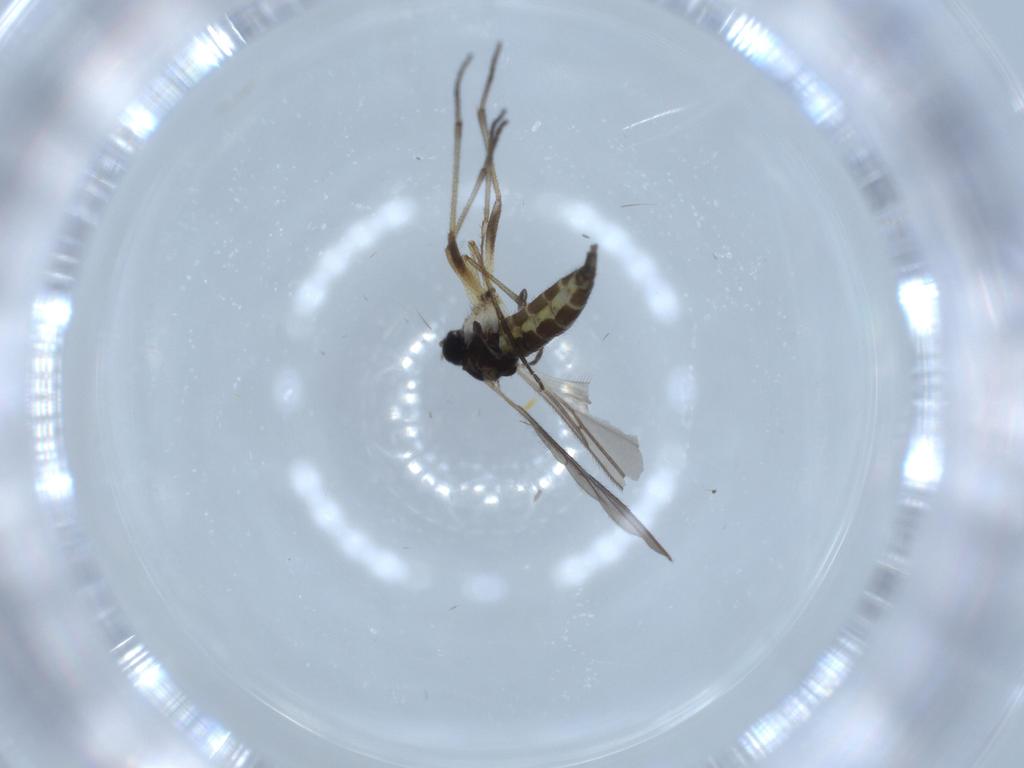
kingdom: Animalia
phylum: Arthropoda
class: Insecta
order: Diptera
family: Sciaridae
